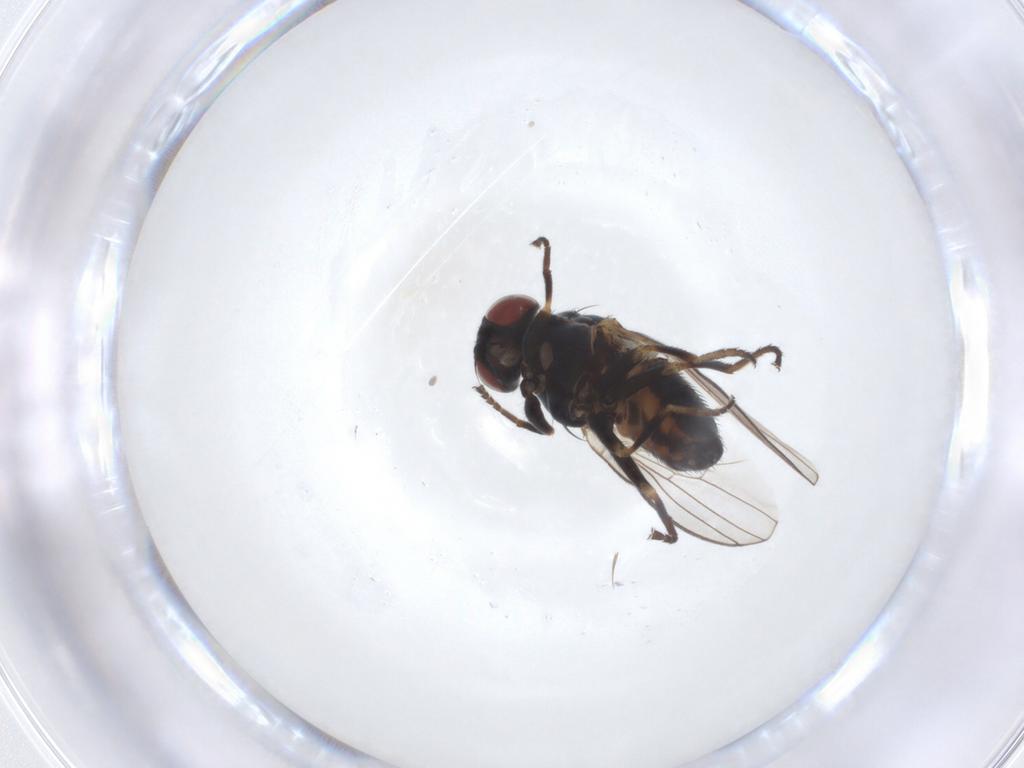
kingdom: Animalia
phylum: Arthropoda
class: Insecta
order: Diptera
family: Chamaemyiidae
